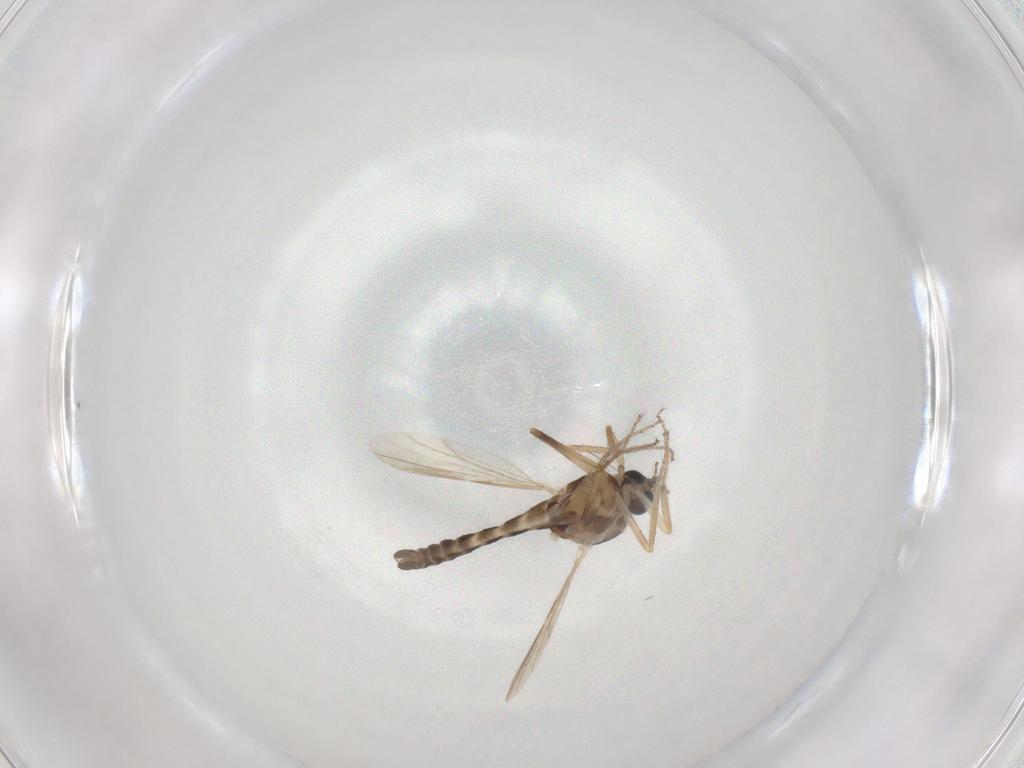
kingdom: Animalia
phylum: Arthropoda
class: Insecta
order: Diptera
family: Ceratopogonidae
